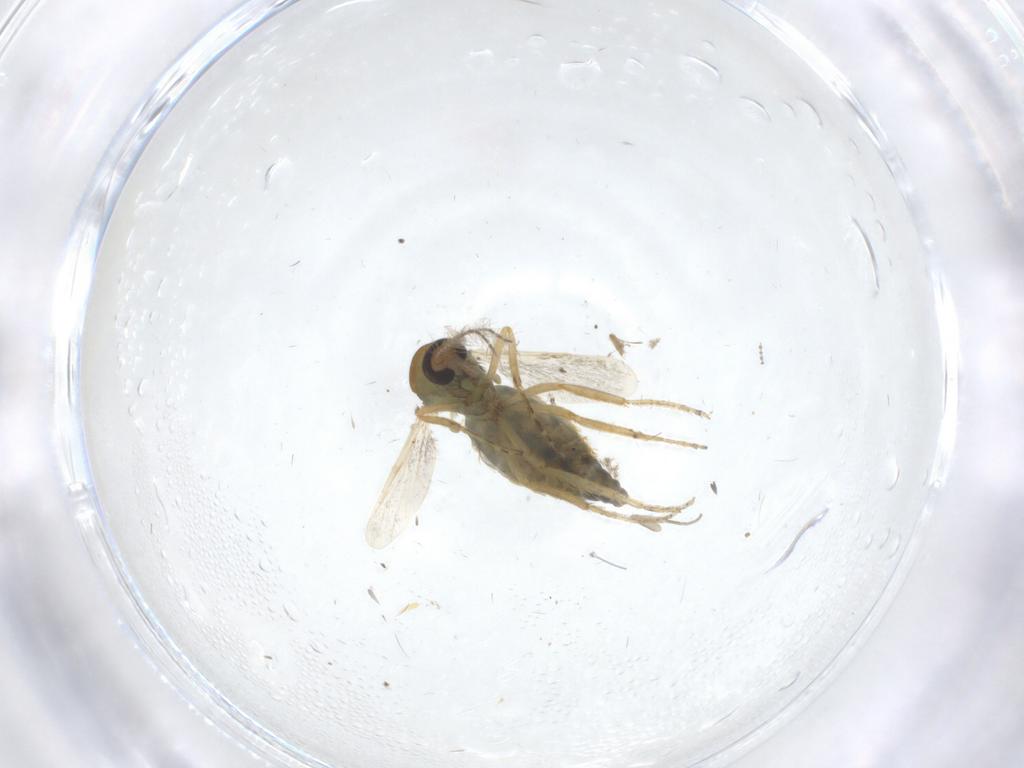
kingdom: Animalia
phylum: Arthropoda
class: Insecta
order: Diptera
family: Ceratopogonidae
